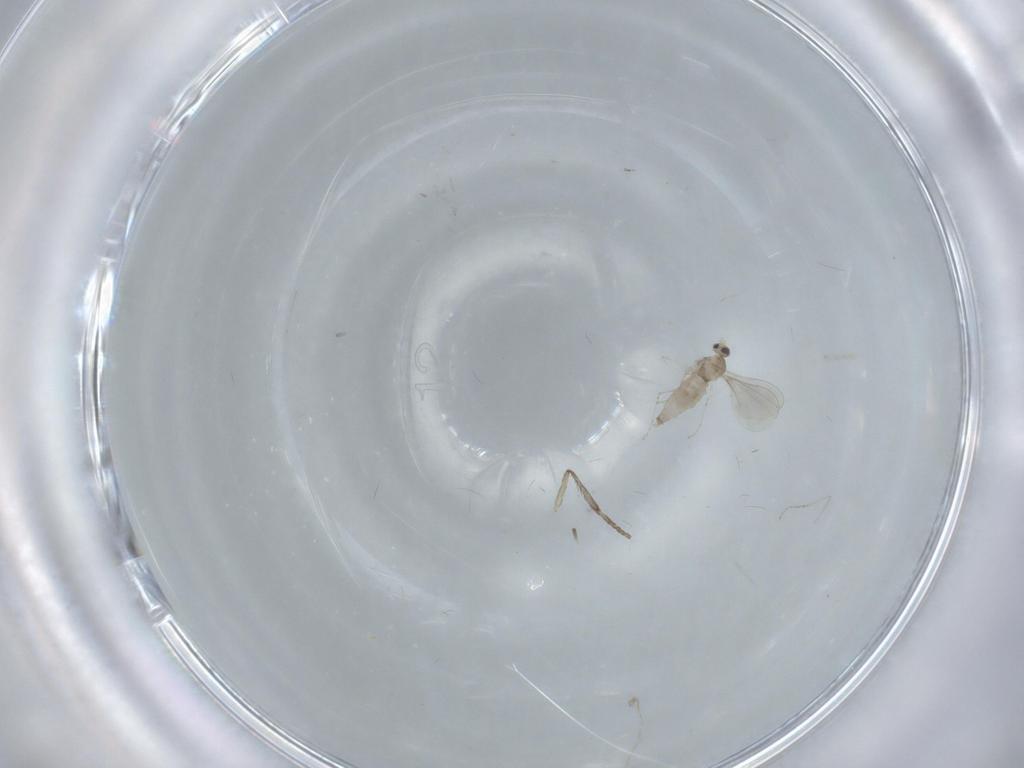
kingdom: Animalia
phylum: Arthropoda
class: Insecta
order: Diptera
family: Cecidomyiidae
